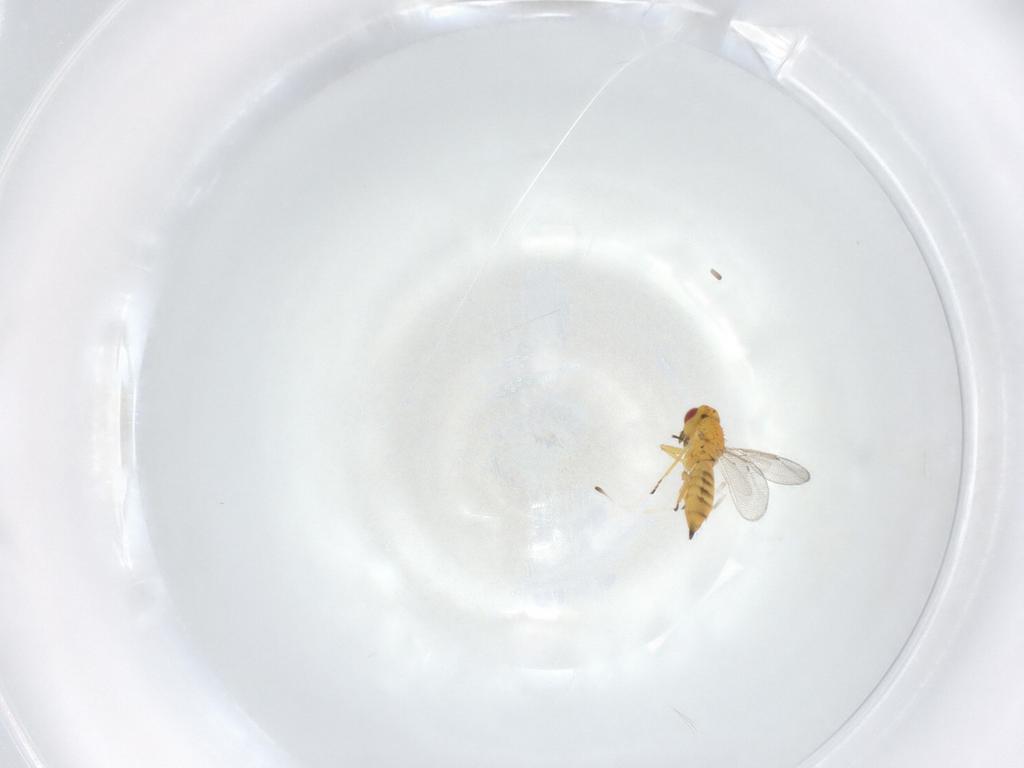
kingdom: Animalia
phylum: Arthropoda
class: Insecta
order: Hymenoptera
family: Eulophidae
